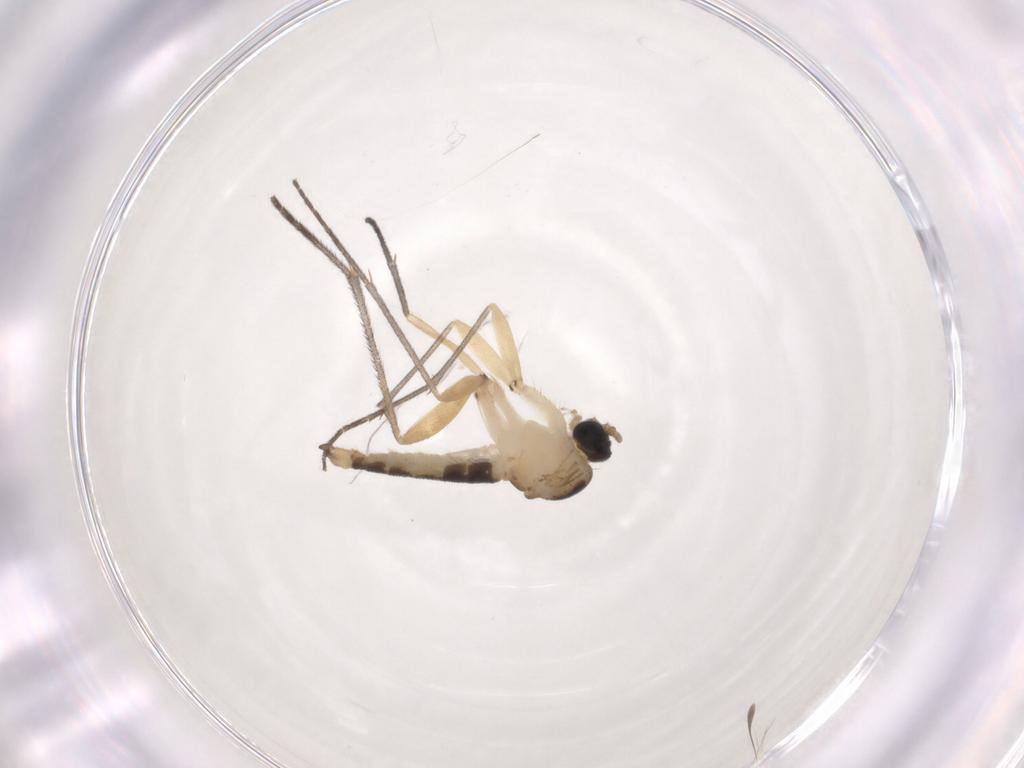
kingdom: Animalia
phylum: Arthropoda
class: Insecta
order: Diptera
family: Sciaridae
